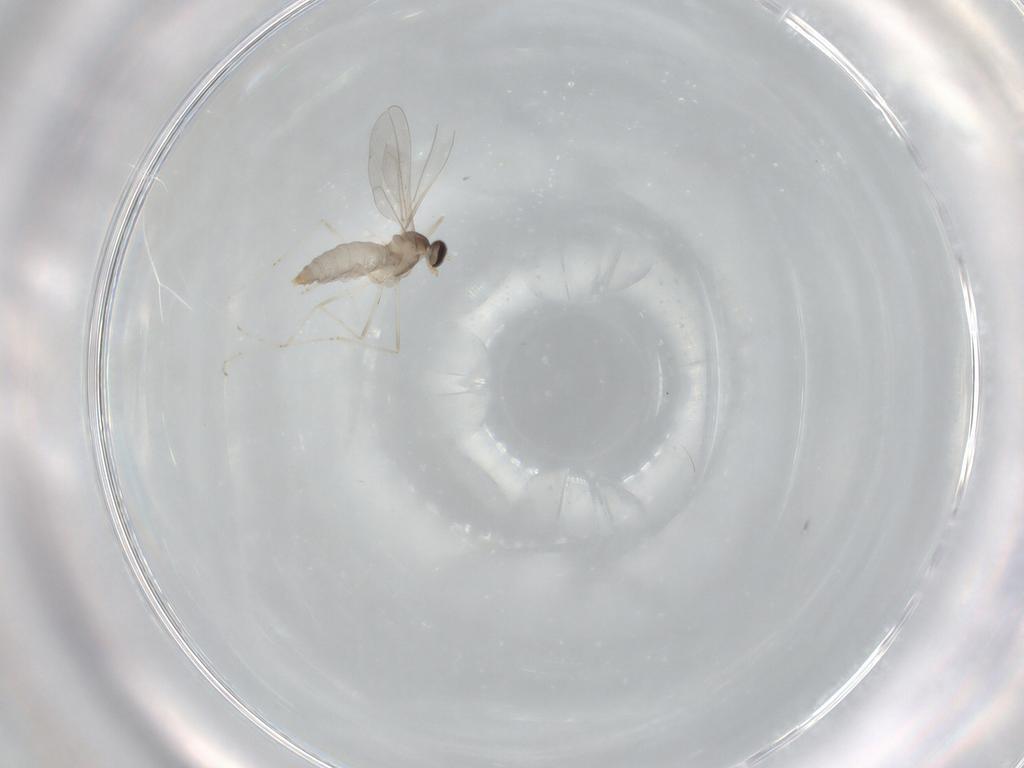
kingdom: Animalia
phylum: Arthropoda
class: Insecta
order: Diptera
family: Cecidomyiidae
